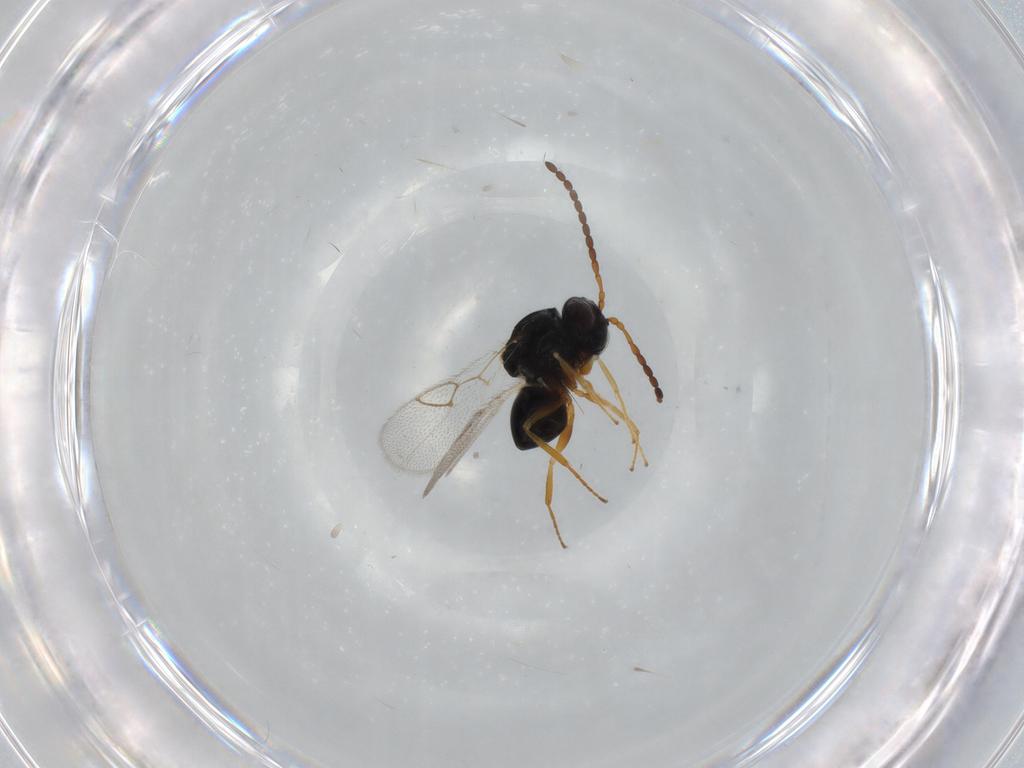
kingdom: Animalia
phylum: Arthropoda
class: Insecta
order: Hymenoptera
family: Figitidae
